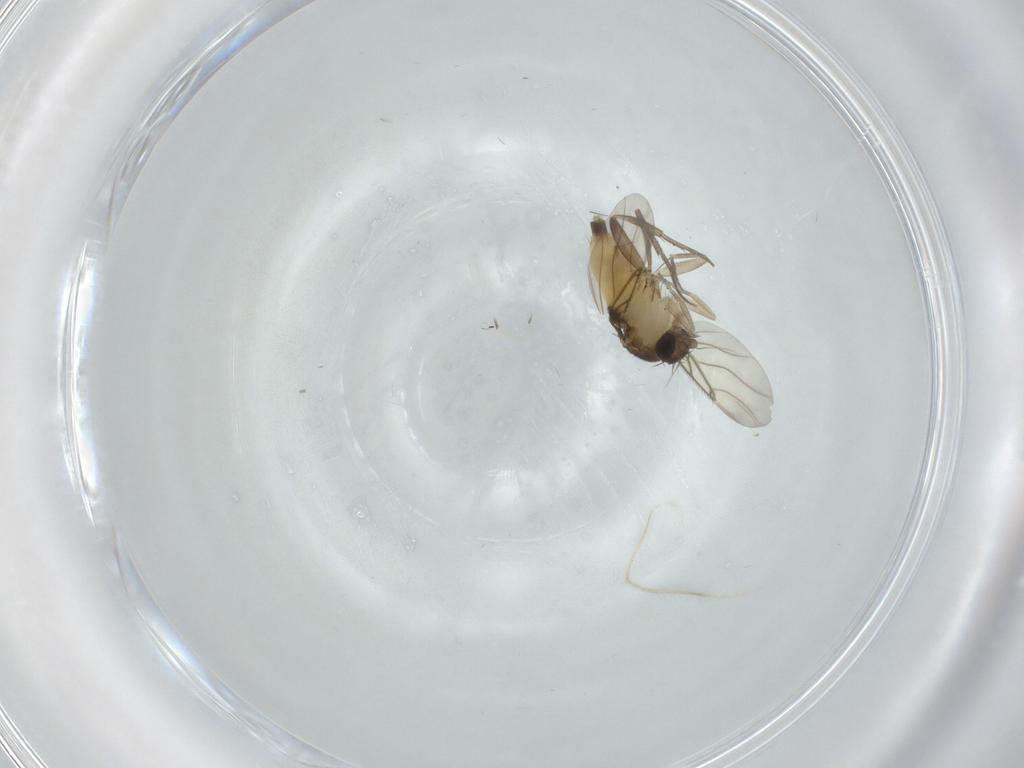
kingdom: Animalia
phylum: Arthropoda
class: Insecta
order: Diptera
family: Phoridae
